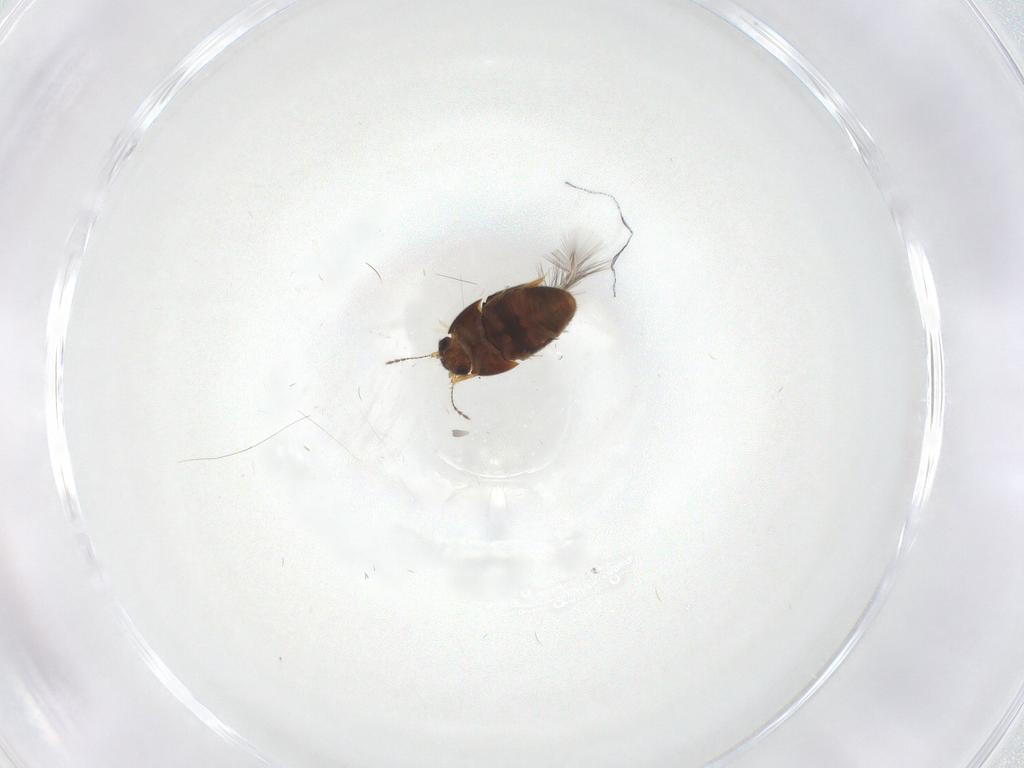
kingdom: Animalia
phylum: Arthropoda
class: Insecta
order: Coleoptera
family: Ptiliidae
